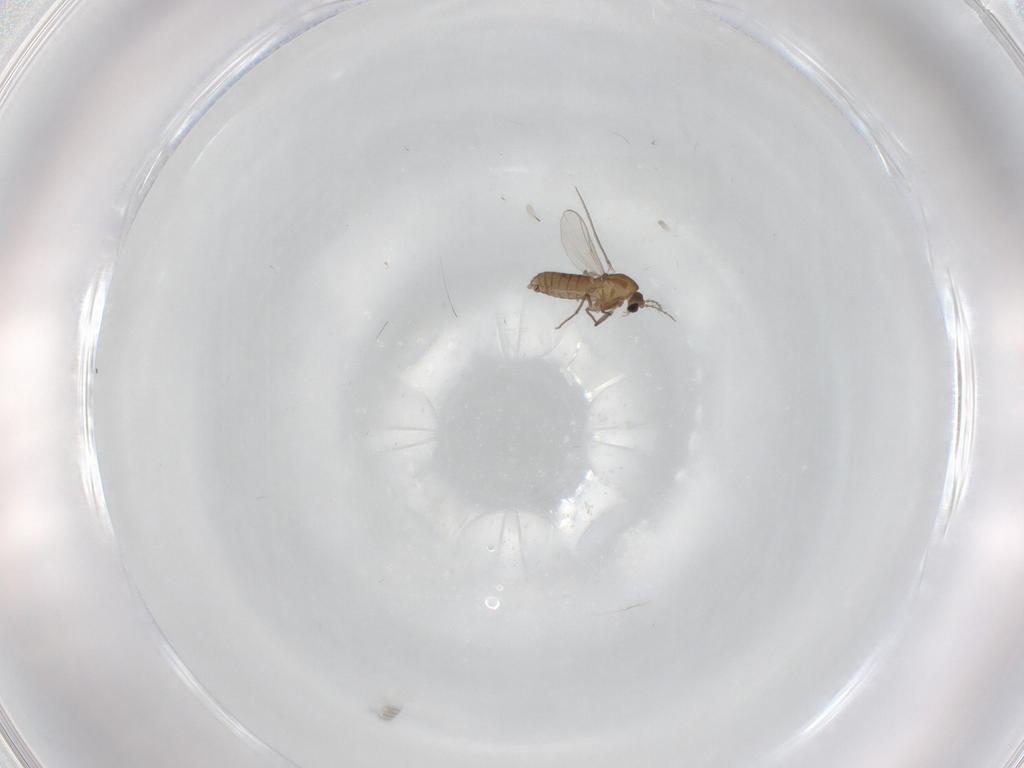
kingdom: Animalia
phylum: Arthropoda
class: Insecta
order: Diptera
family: Chironomidae
